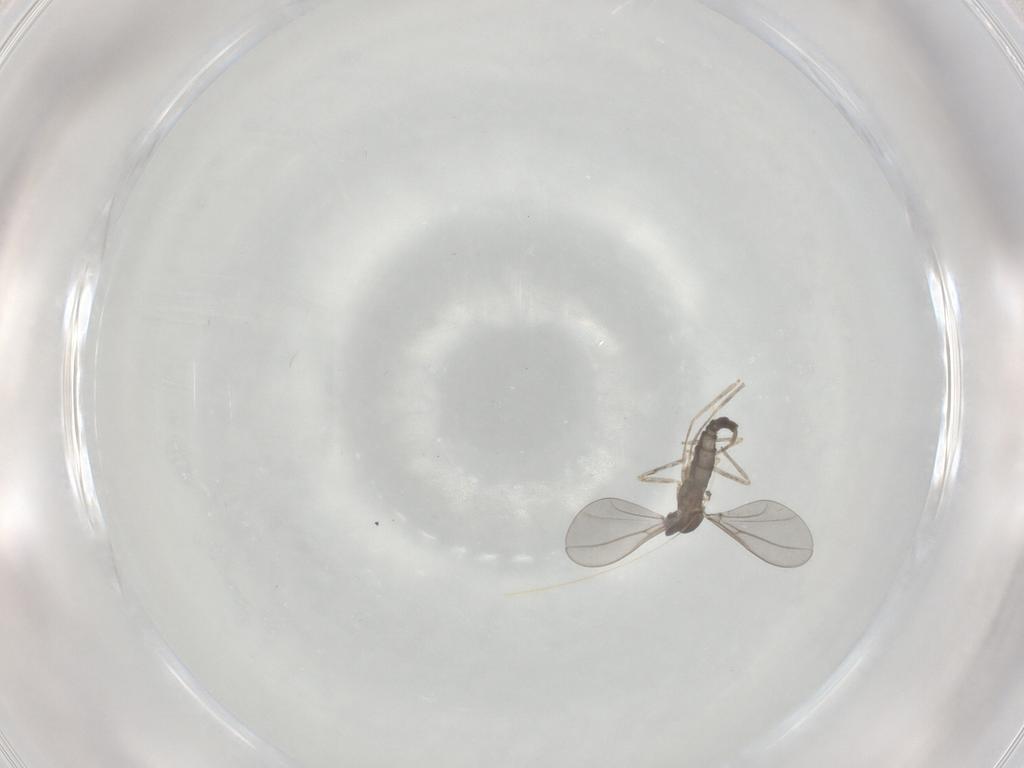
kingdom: Animalia
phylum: Arthropoda
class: Insecta
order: Diptera
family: Cecidomyiidae
